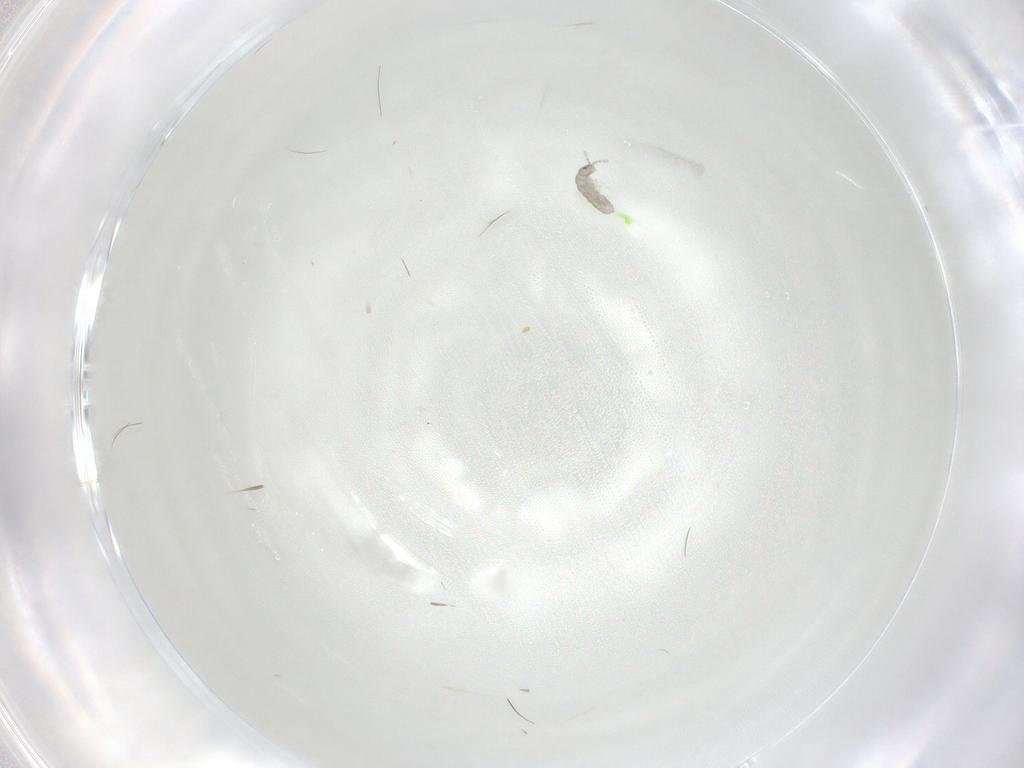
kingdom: Animalia
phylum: Arthropoda
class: Collembola
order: Entomobryomorpha
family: Isotomidae
